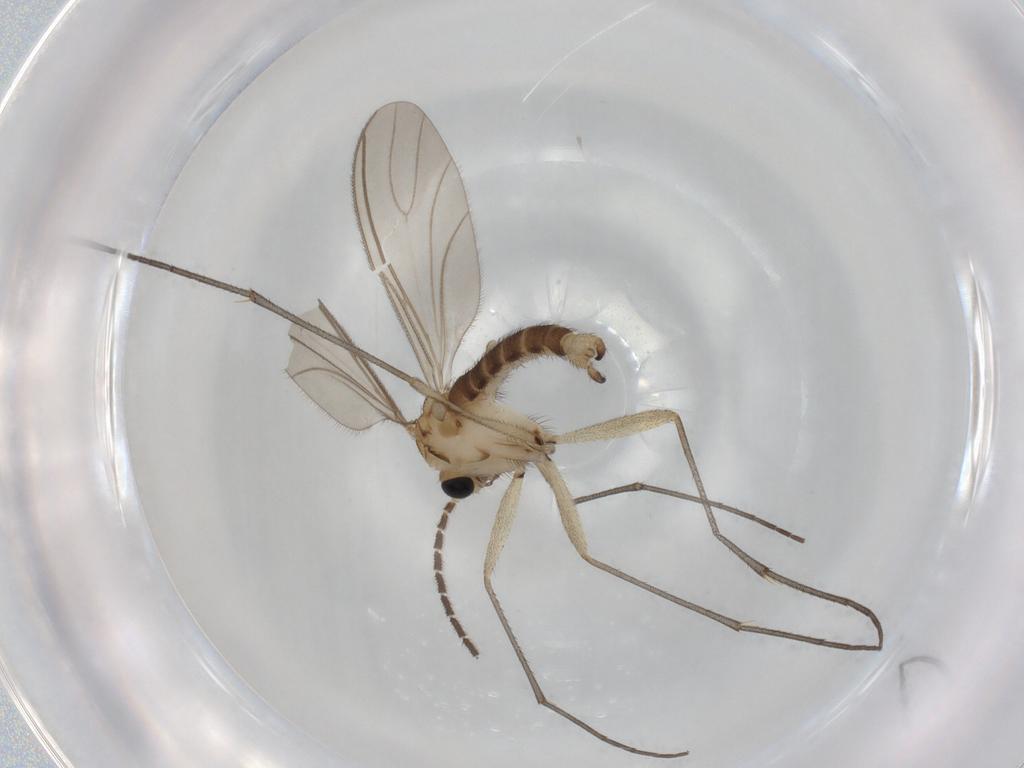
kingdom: Animalia
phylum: Arthropoda
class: Insecta
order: Diptera
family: Sciaridae
